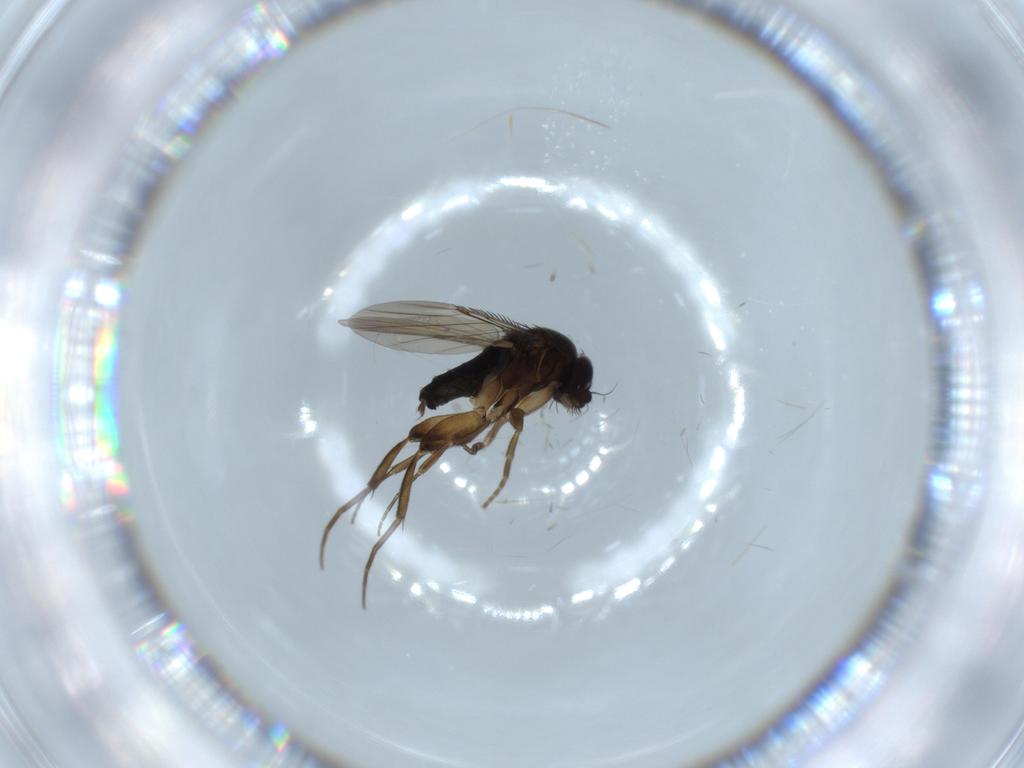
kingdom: Animalia
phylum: Arthropoda
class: Insecta
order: Diptera
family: Phoridae
